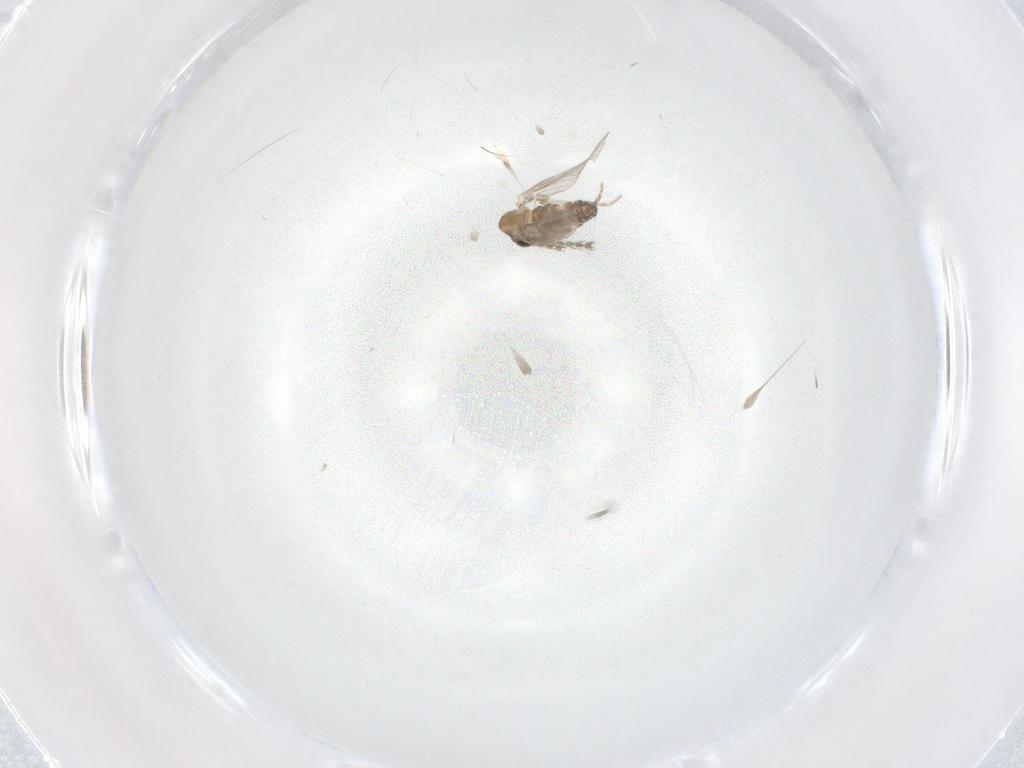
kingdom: Animalia
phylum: Arthropoda
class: Insecta
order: Diptera
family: Psychodidae
